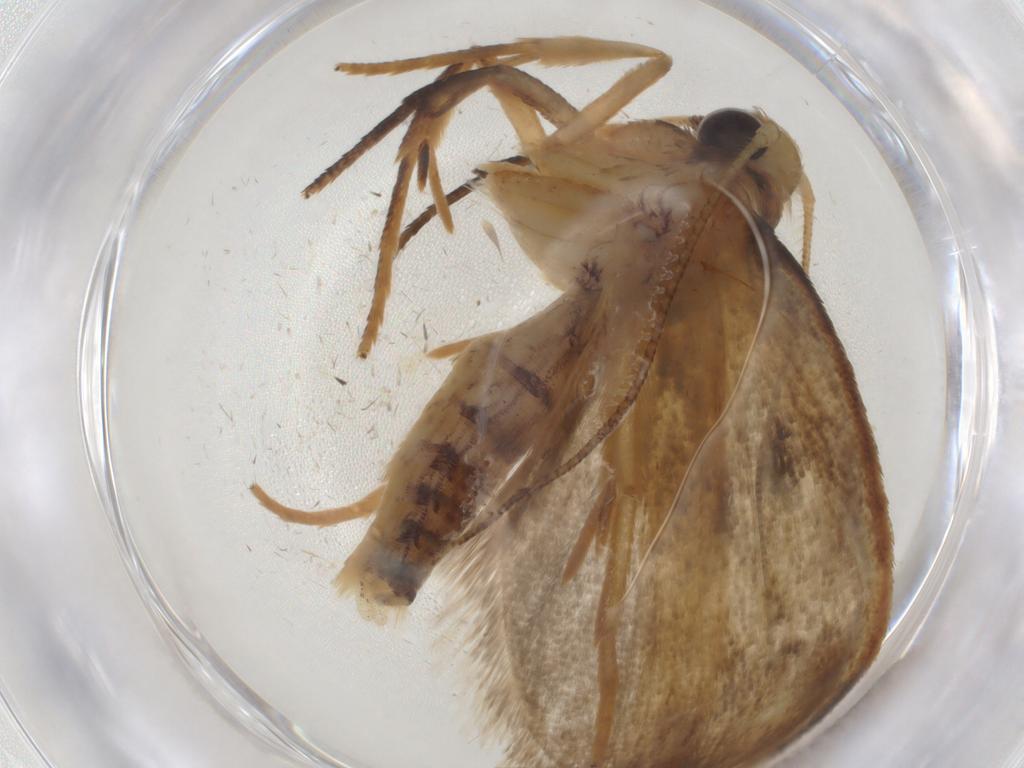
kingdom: Animalia
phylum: Arthropoda
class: Insecta
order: Lepidoptera
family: Depressariidae
